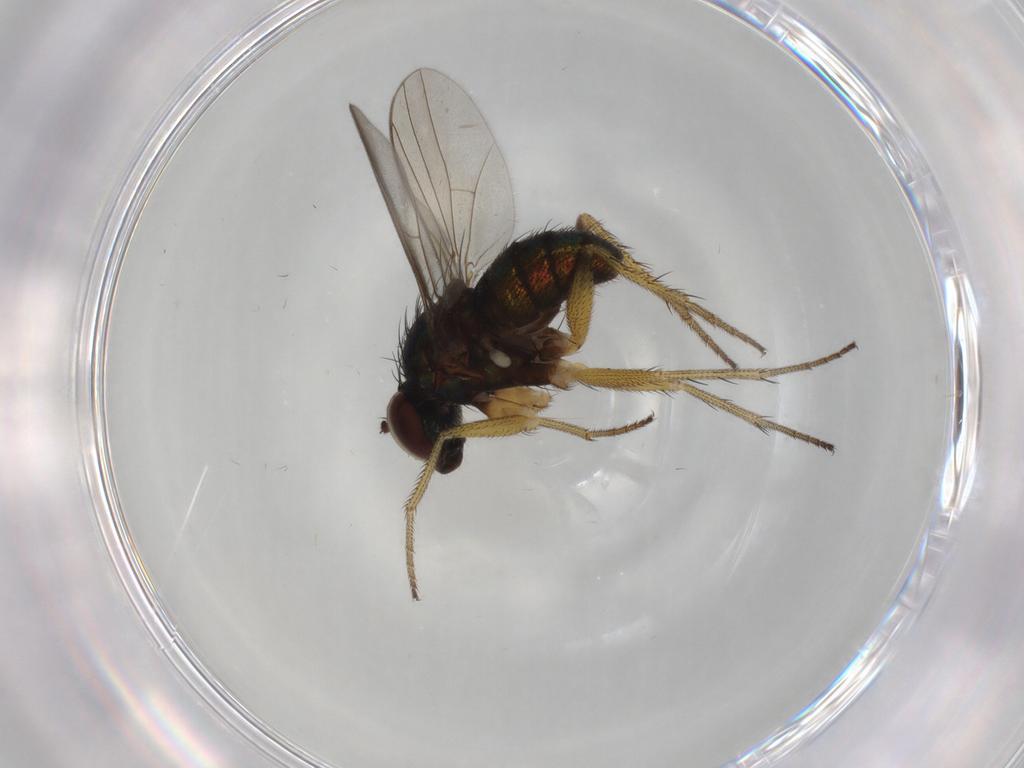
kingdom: Animalia
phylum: Arthropoda
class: Insecta
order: Diptera
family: Dolichopodidae
